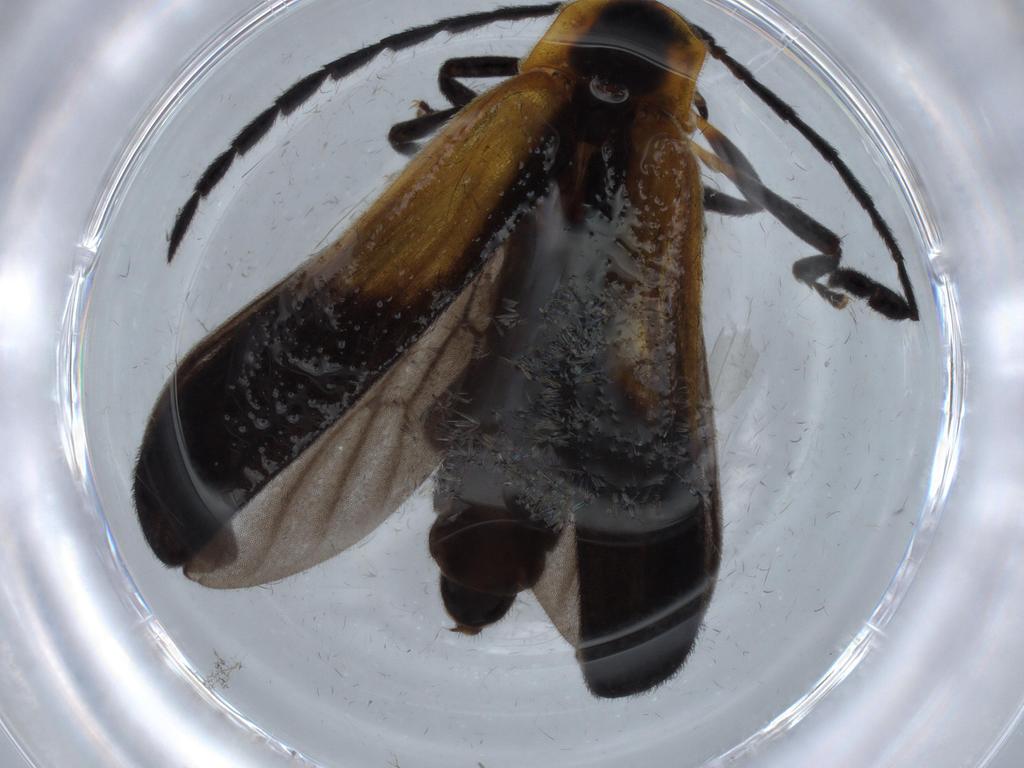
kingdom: Animalia
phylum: Arthropoda
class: Insecta
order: Coleoptera
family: Lycidae
